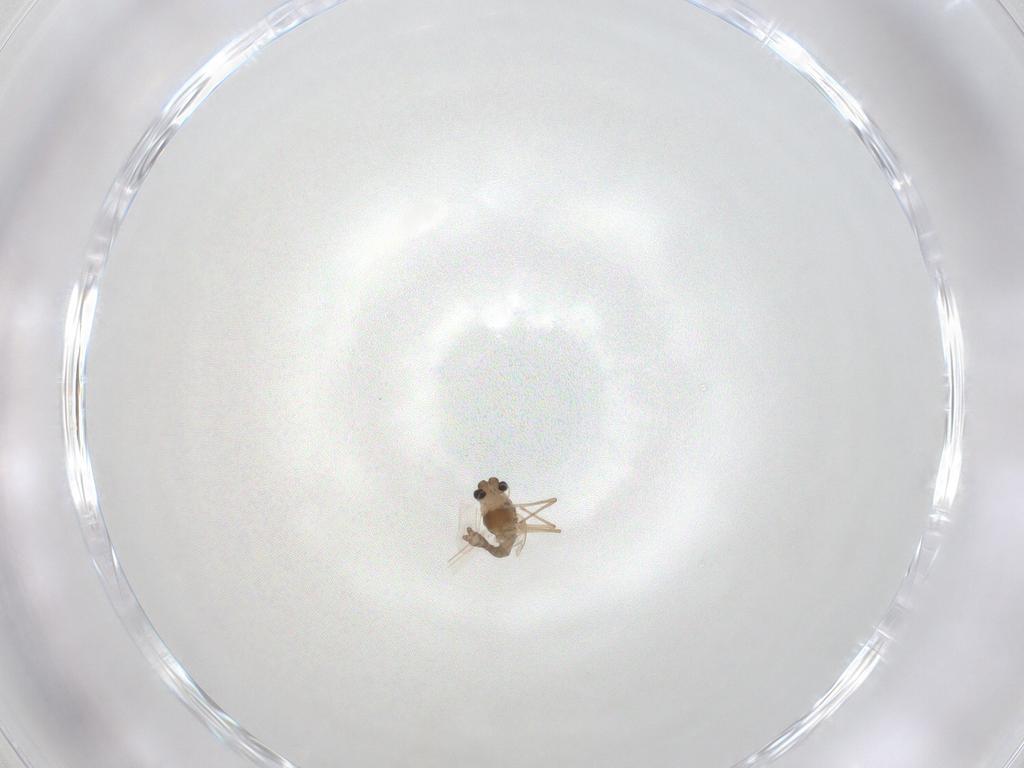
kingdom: Animalia
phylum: Arthropoda
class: Insecta
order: Diptera
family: Chironomidae
